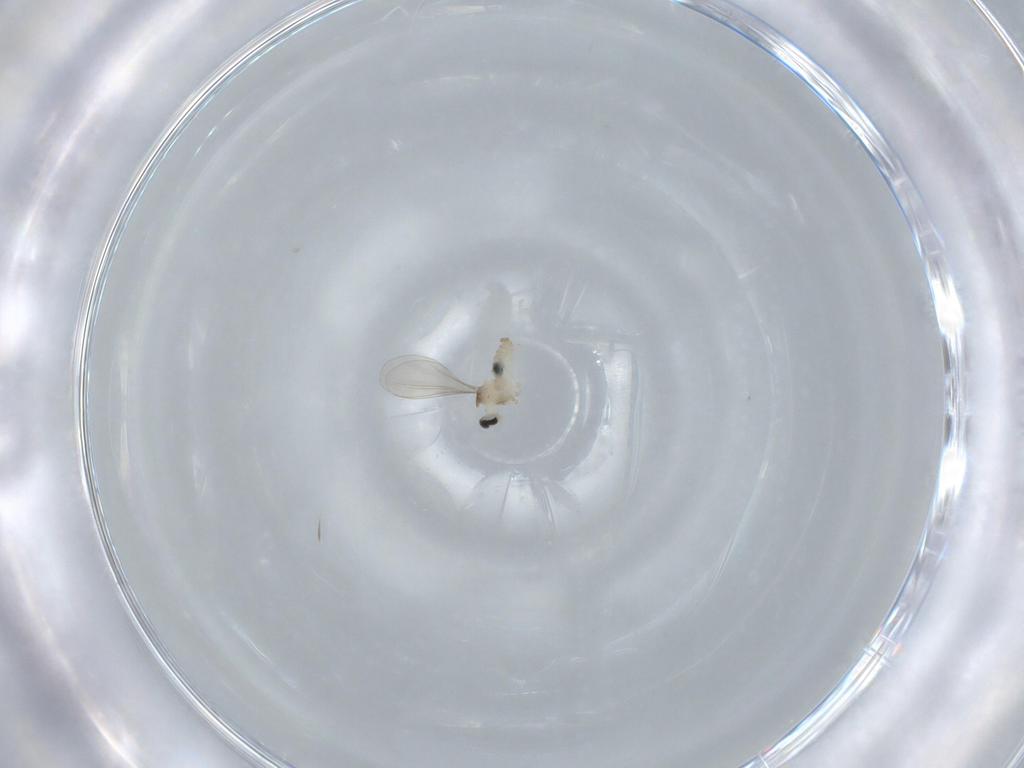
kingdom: Animalia
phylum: Arthropoda
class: Insecta
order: Diptera
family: Cecidomyiidae
